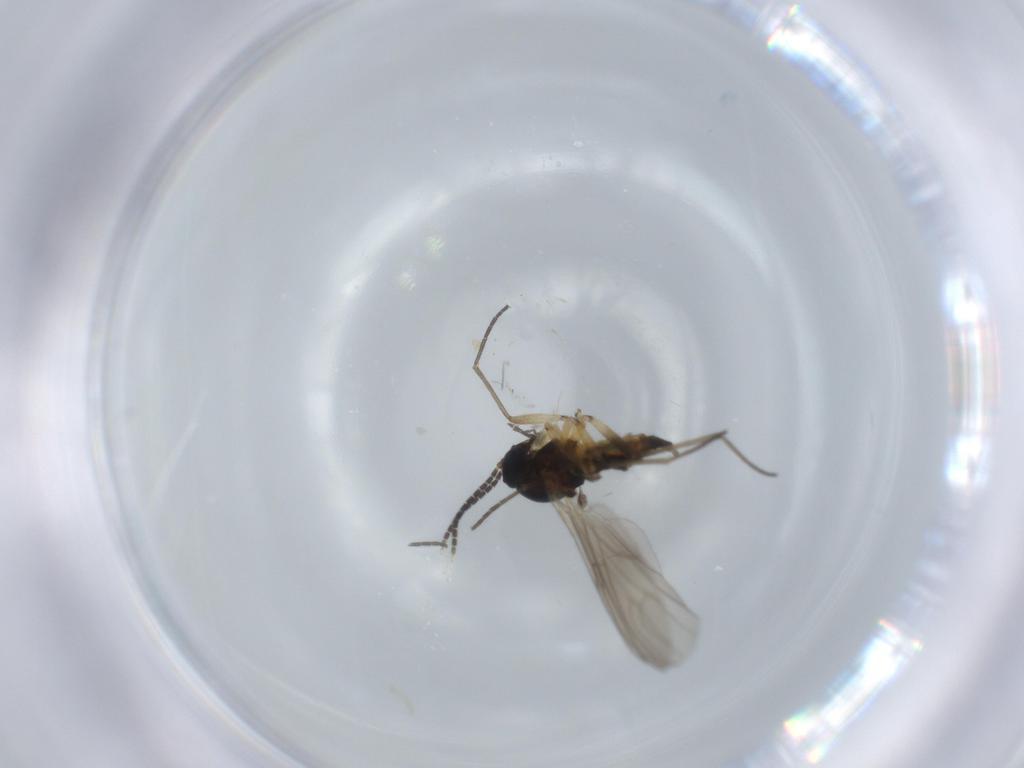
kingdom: Animalia
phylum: Arthropoda
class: Insecta
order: Diptera
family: Sciaridae
